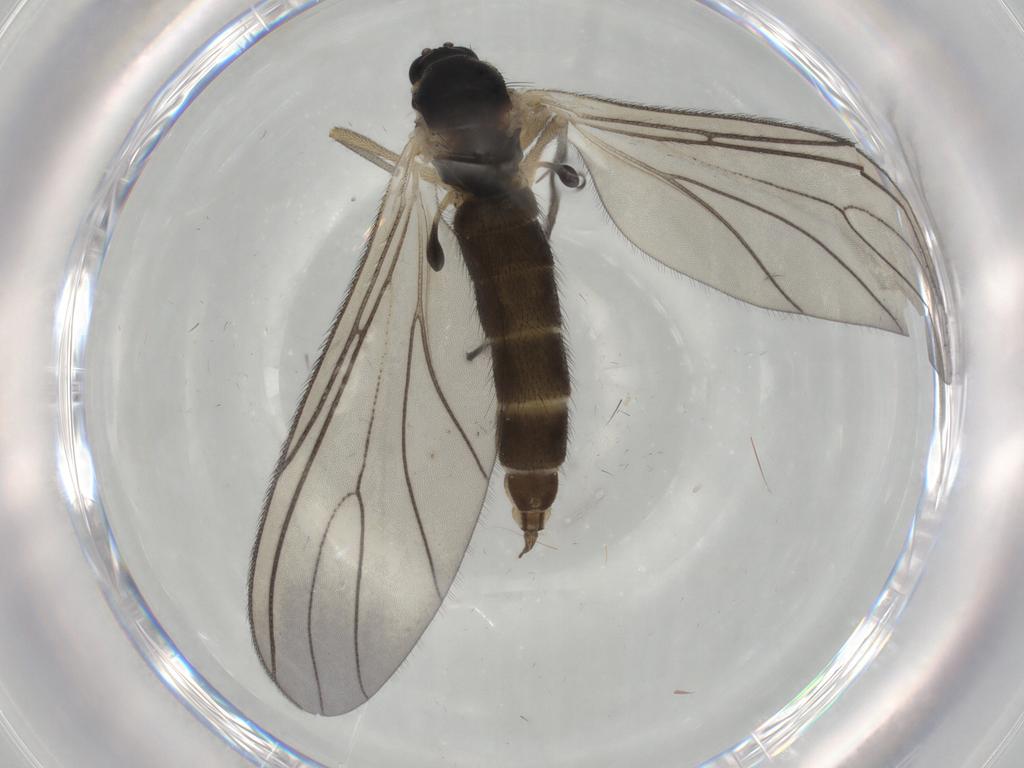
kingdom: Animalia
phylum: Arthropoda
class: Insecta
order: Diptera
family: Sciaridae
